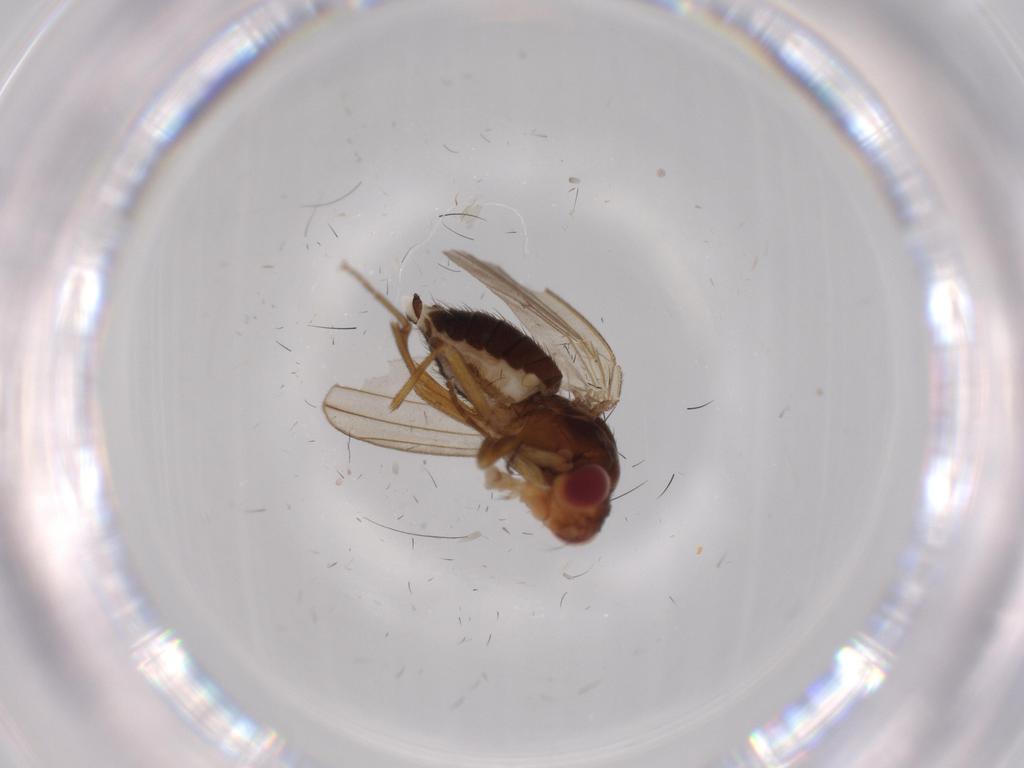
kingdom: Animalia
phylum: Arthropoda
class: Insecta
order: Diptera
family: Drosophilidae
